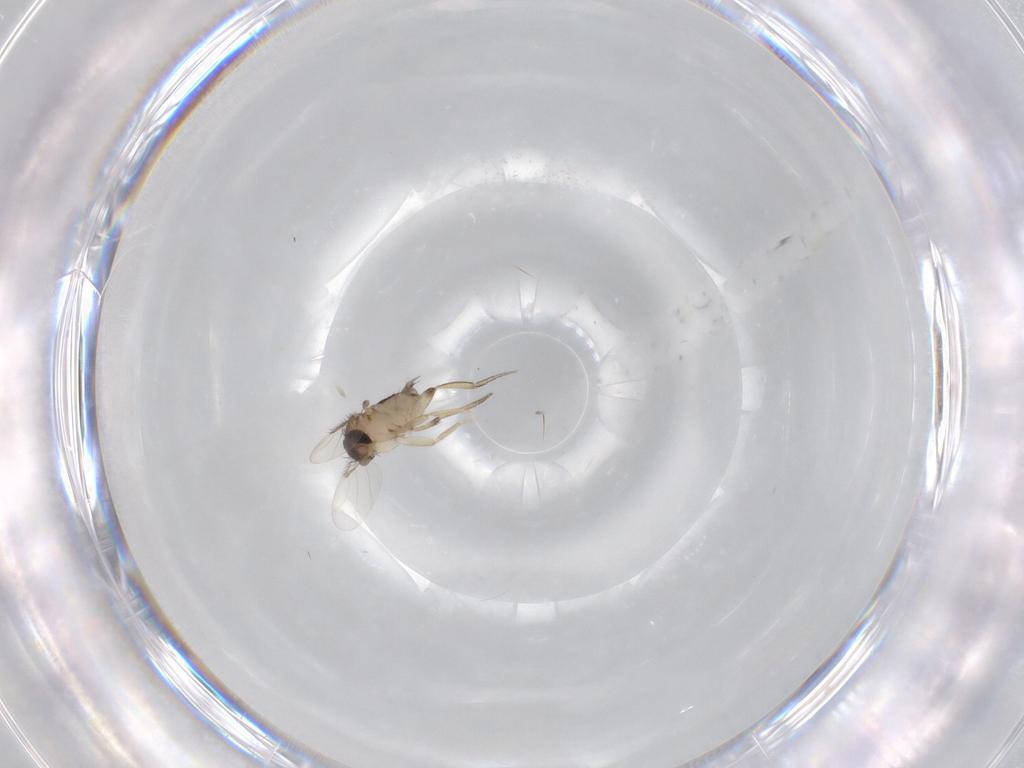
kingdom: Animalia
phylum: Arthropoda
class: Insecta
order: Diptera
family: Phoridae
